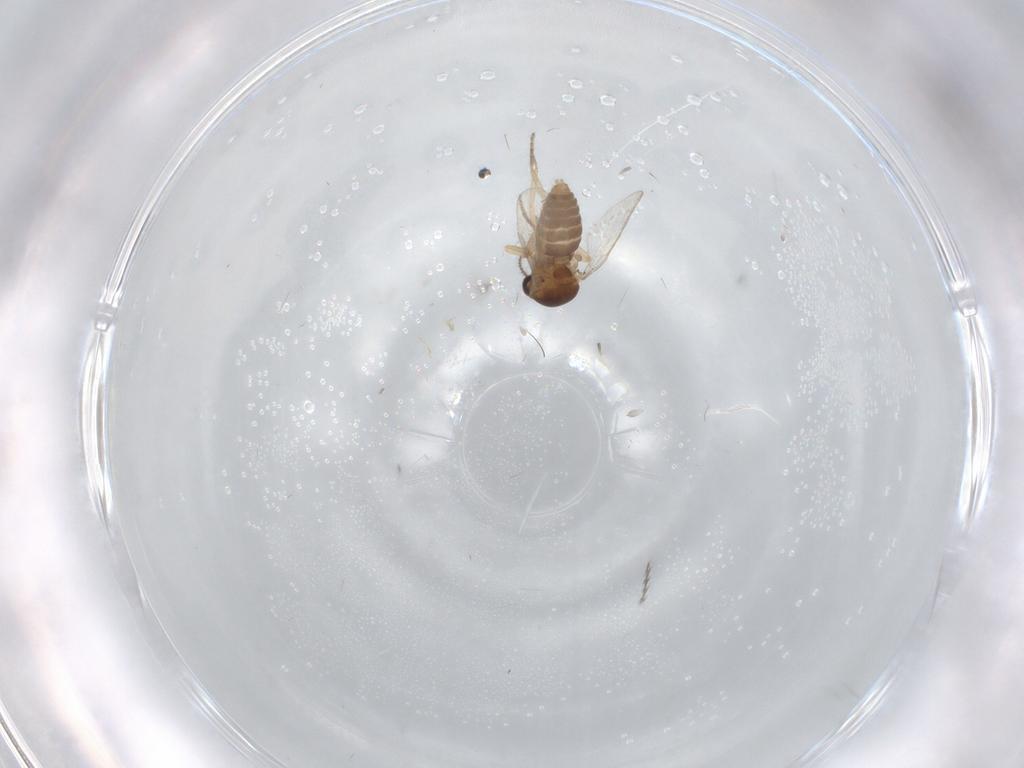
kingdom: Animalia
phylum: Arthropoda
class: Insecta
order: Diptera
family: Ceratopogonidae
